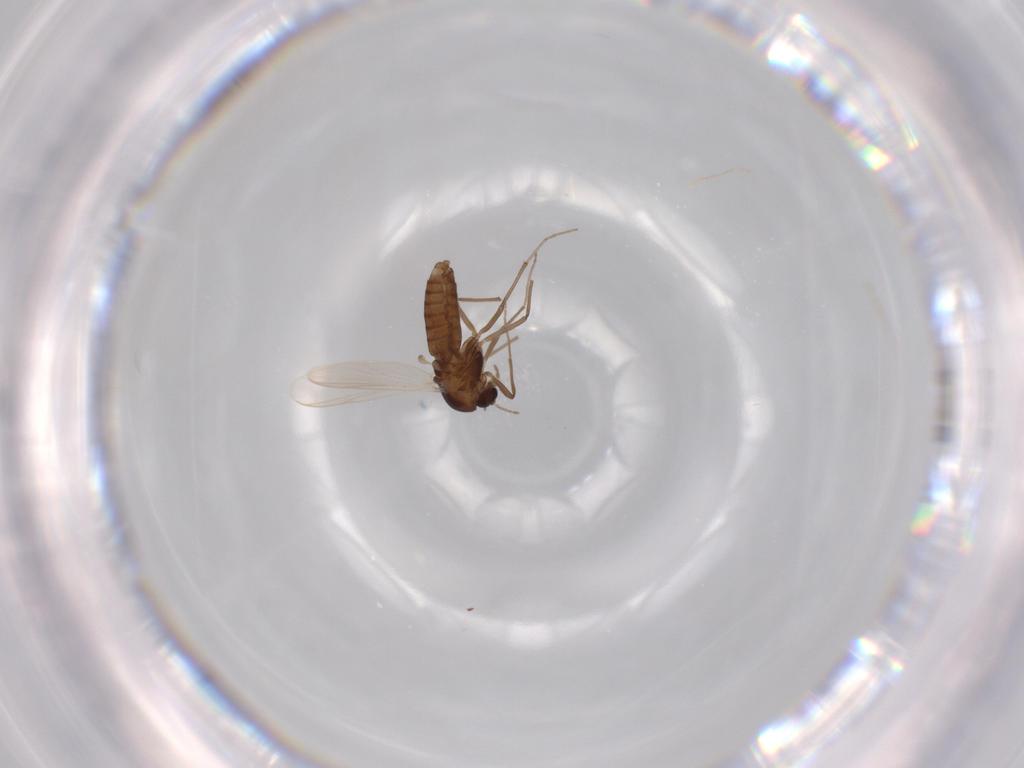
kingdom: Animalia
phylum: Arthropoda
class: Insecta
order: Diptera
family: Chironomidae
